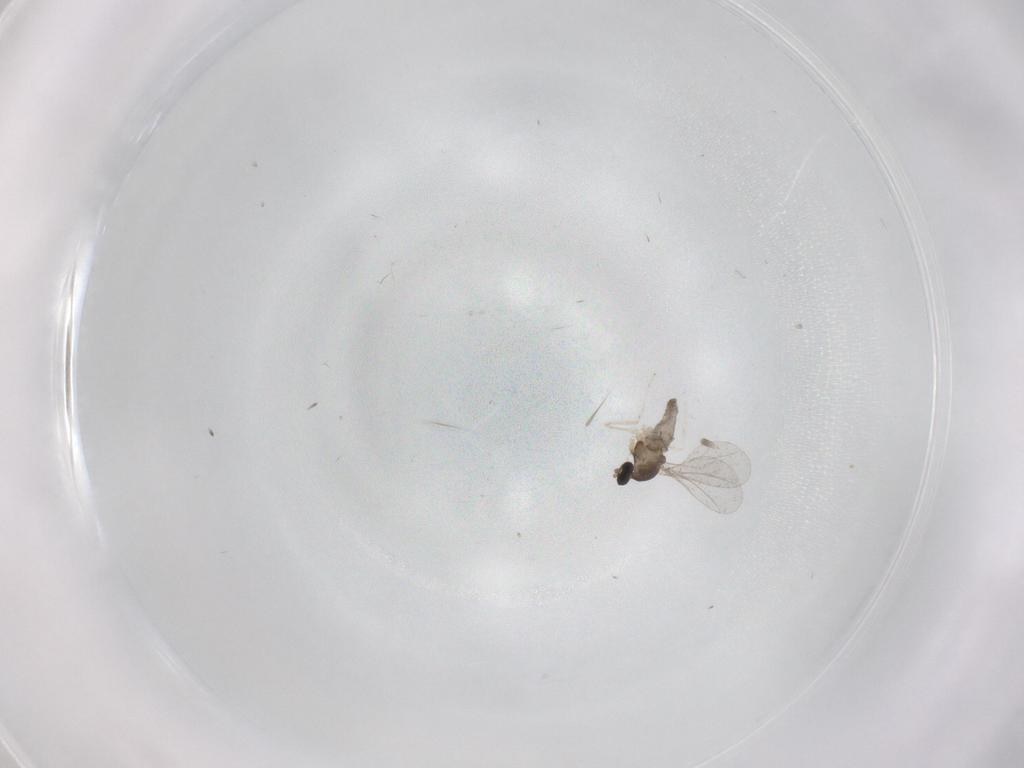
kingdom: Animalia
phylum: Arthropoda
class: Insecta
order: Diptera
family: Cecidomyiidae
